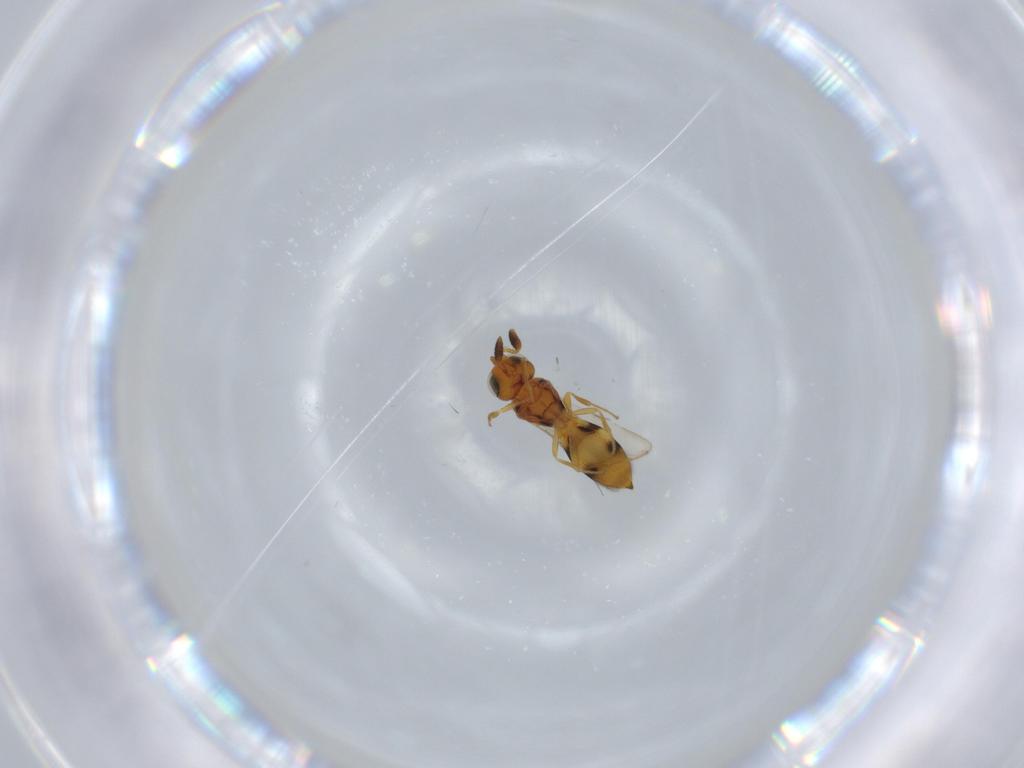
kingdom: Animalia
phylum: Arthropoda
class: Insecta
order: Hymenoptera
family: Scelionidae
